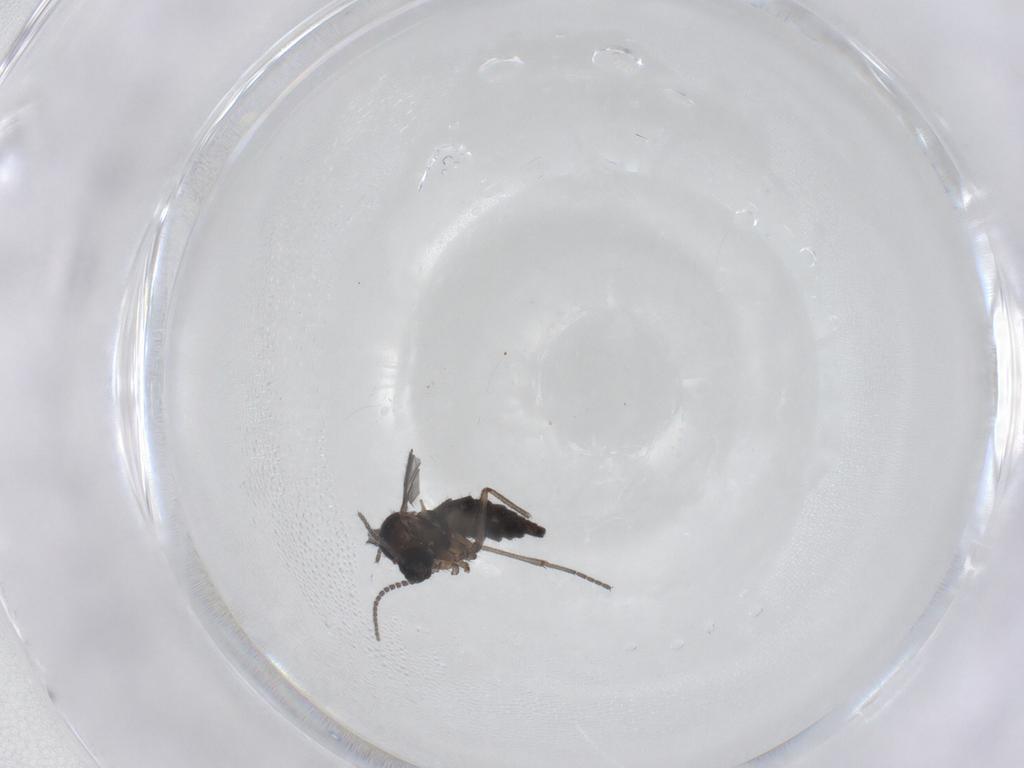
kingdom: Animalia
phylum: Arthropoda
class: Insecta
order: Diptera
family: Sciaridae
